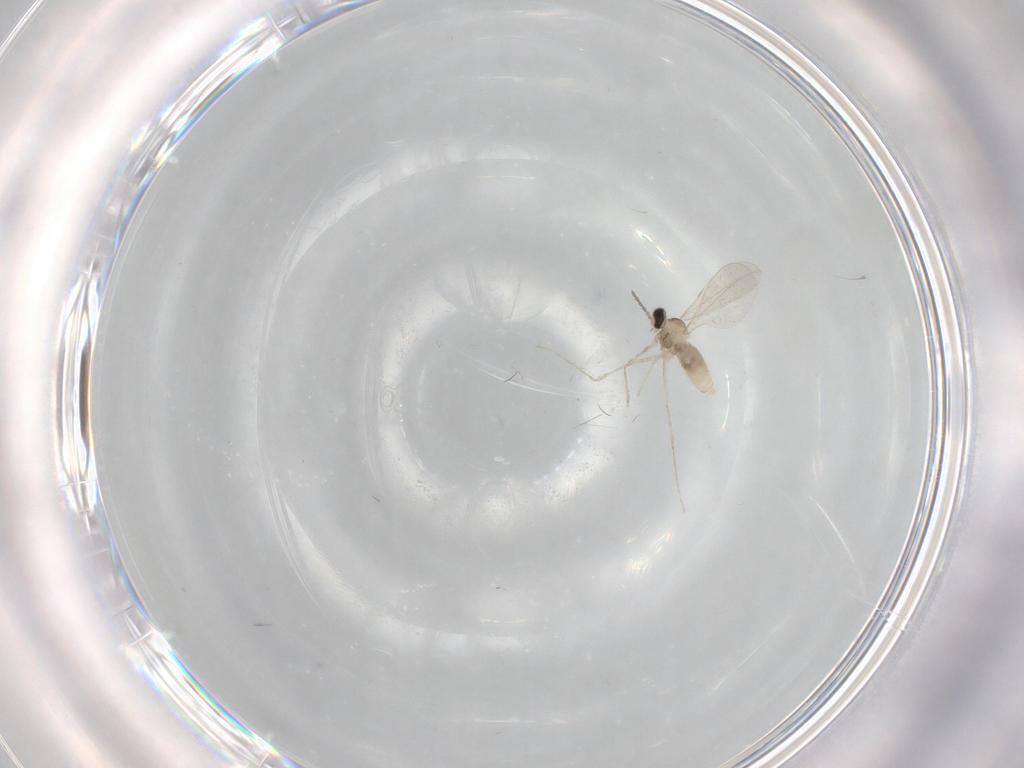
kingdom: Animalia
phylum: Arthropoda
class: Insecta
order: Diptera
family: Cecidomyiidae
